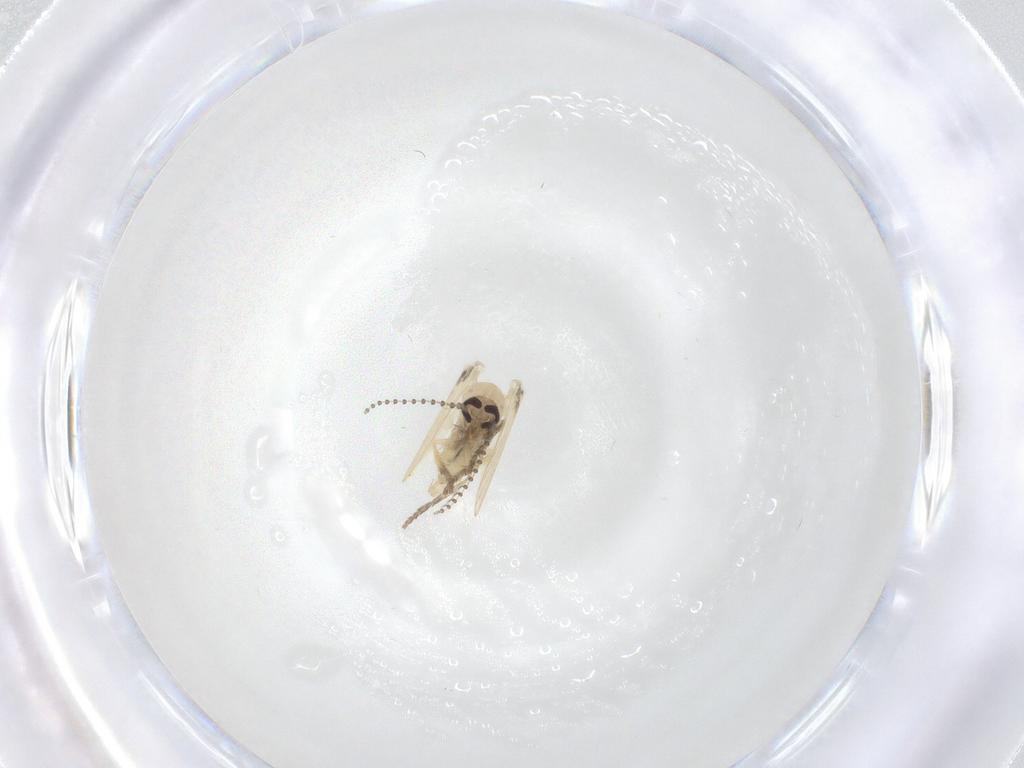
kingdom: Animalia
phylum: Arthropoda
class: Insecta
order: Diptera
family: Psychodidae
